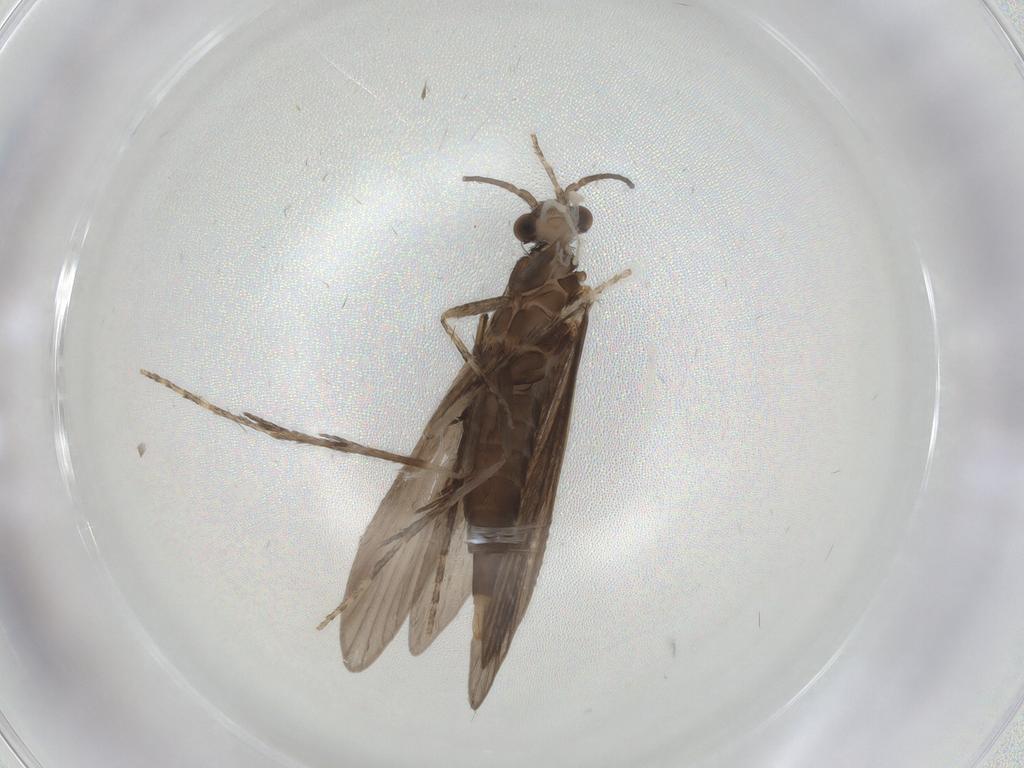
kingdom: Animalia
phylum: Arthropoda
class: Insecta
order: Trichoptera
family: Xiphocentronidae
